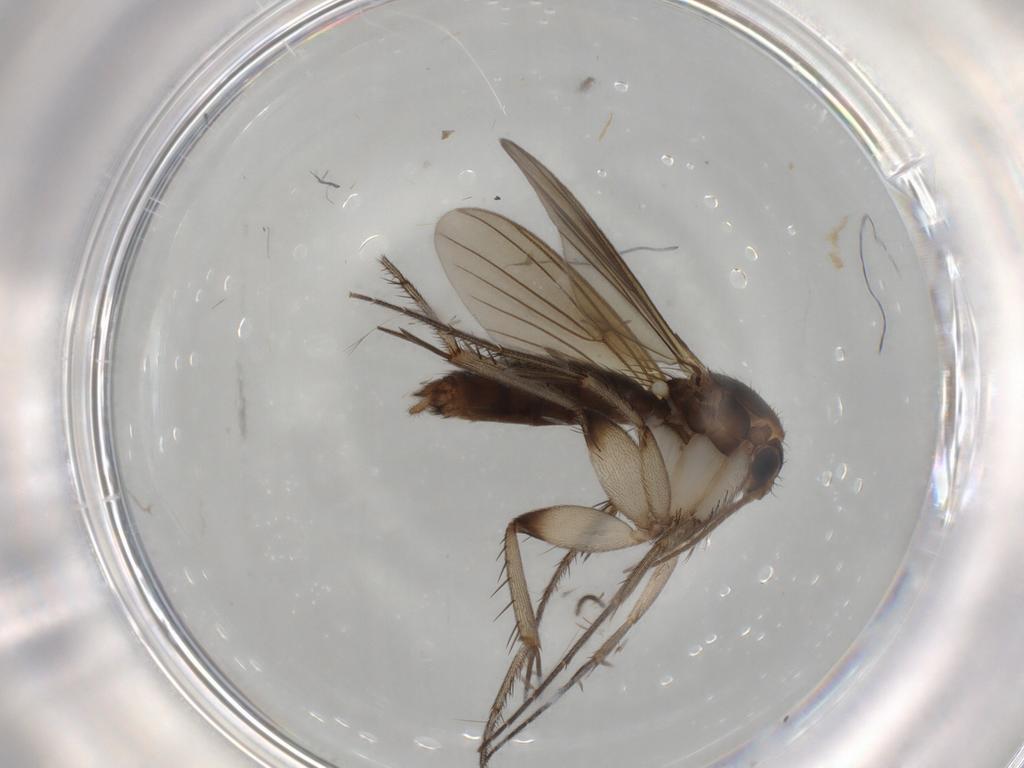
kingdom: Animalia
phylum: Arthropoda
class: Insecta
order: Diptera
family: Mycetophilidae
